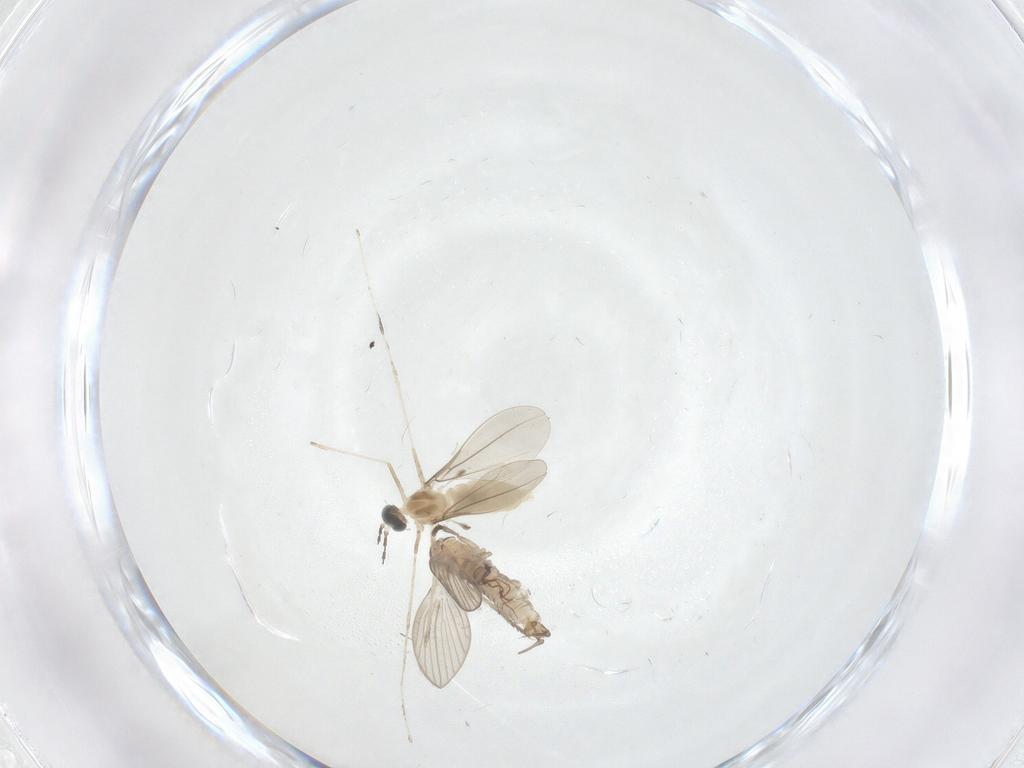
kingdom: Animalia
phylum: Arthropoda
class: Insecta
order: Diptera
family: Psychodidae
